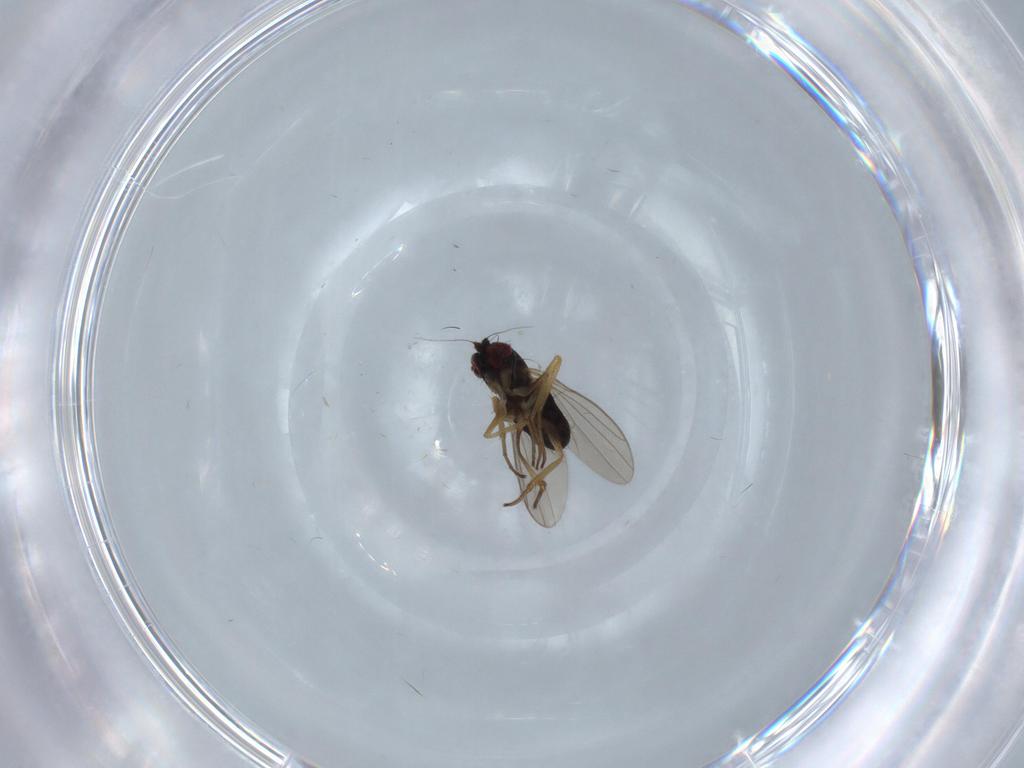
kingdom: Animalia
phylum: Arthropoda
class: Insecta
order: Diptera
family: Dolichopodidae
